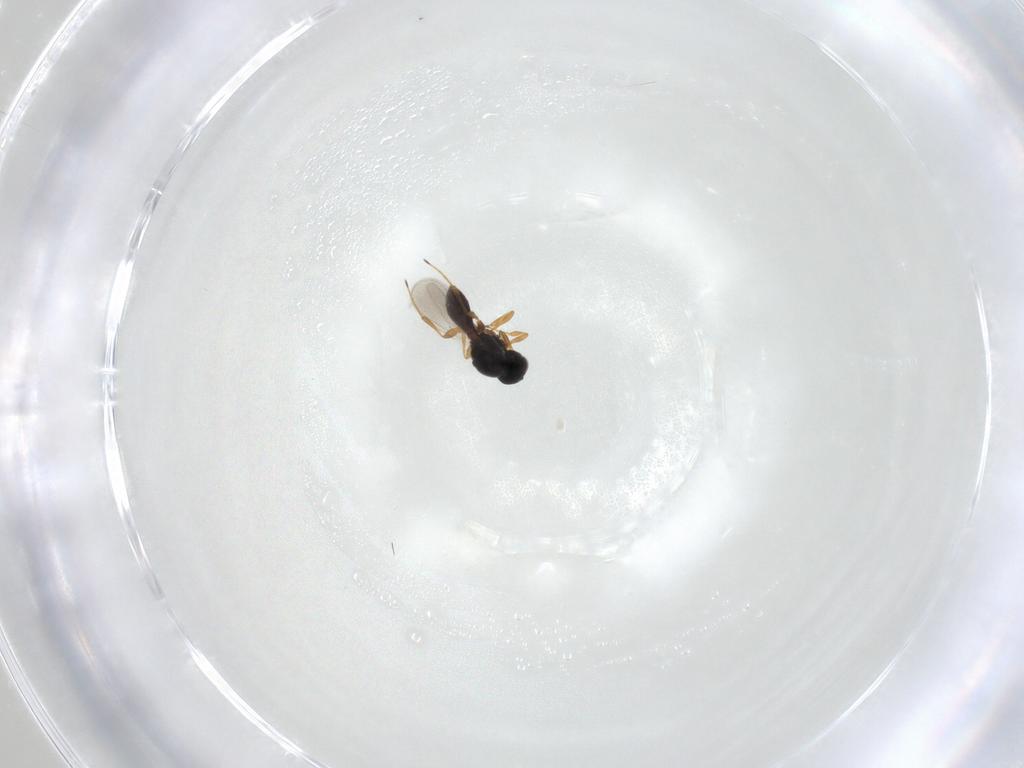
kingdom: Animalia
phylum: Arthropoda
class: Insecta
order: Hymenoptera
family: Platygastridae
